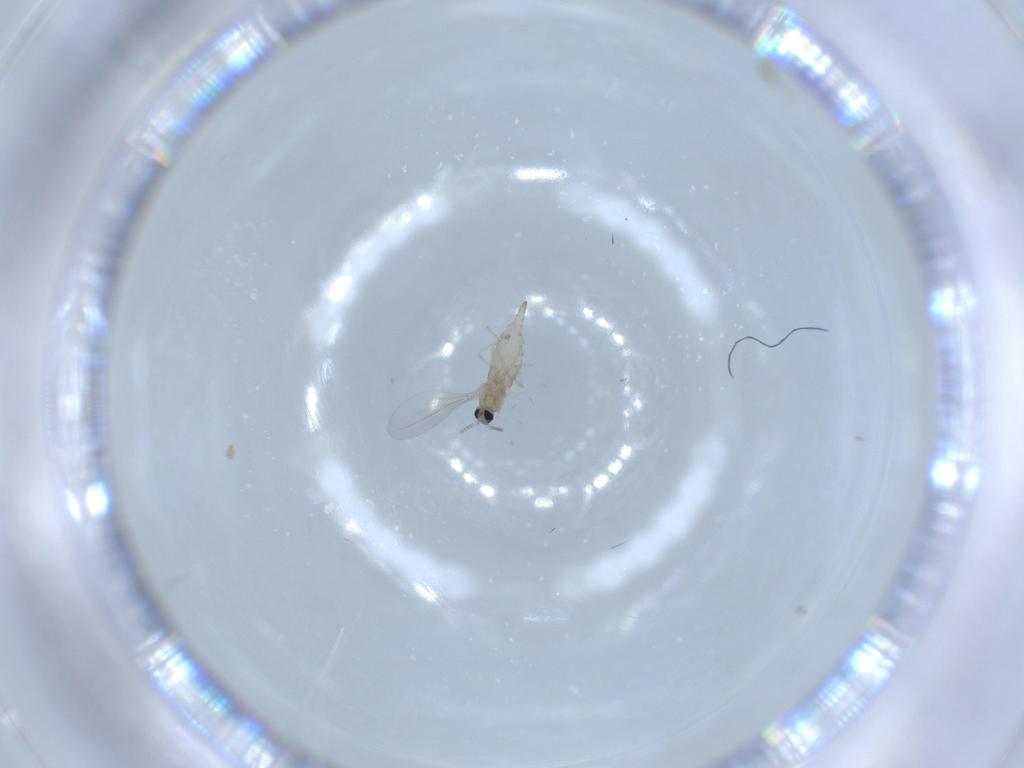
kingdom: Animalia
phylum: Arthropoda
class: Insecta
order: Diptera
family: Cecidomyiidae
